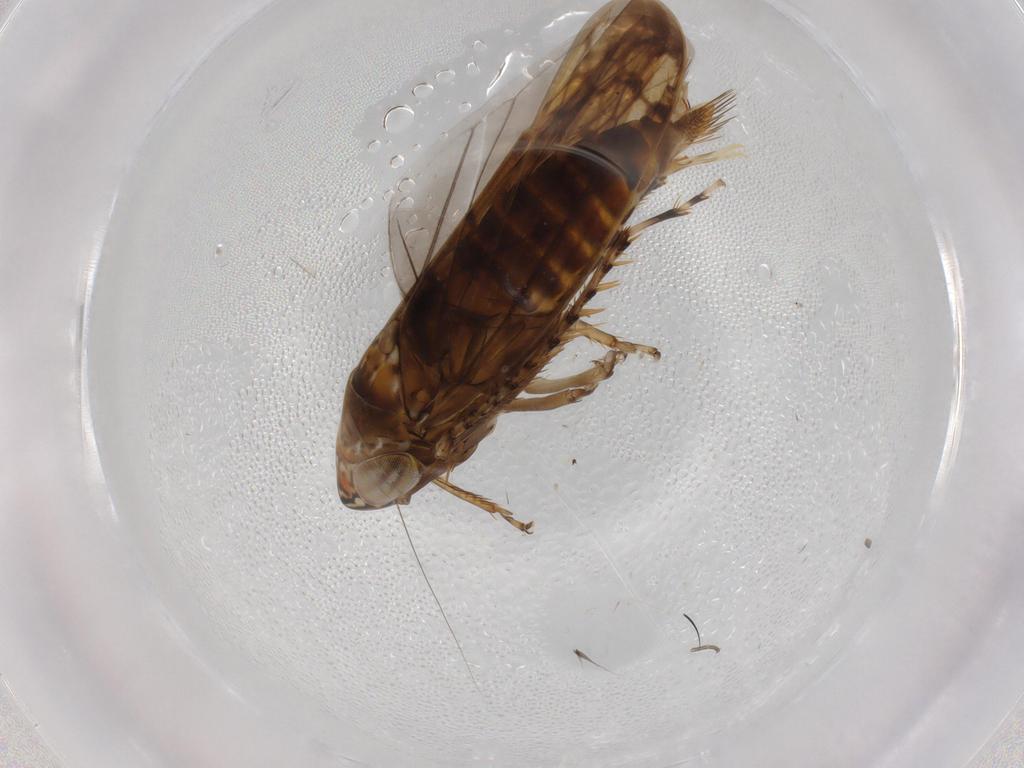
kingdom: Animalia
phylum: Arthropoda
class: Insecta
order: Hemiptera
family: Cicadellidae
